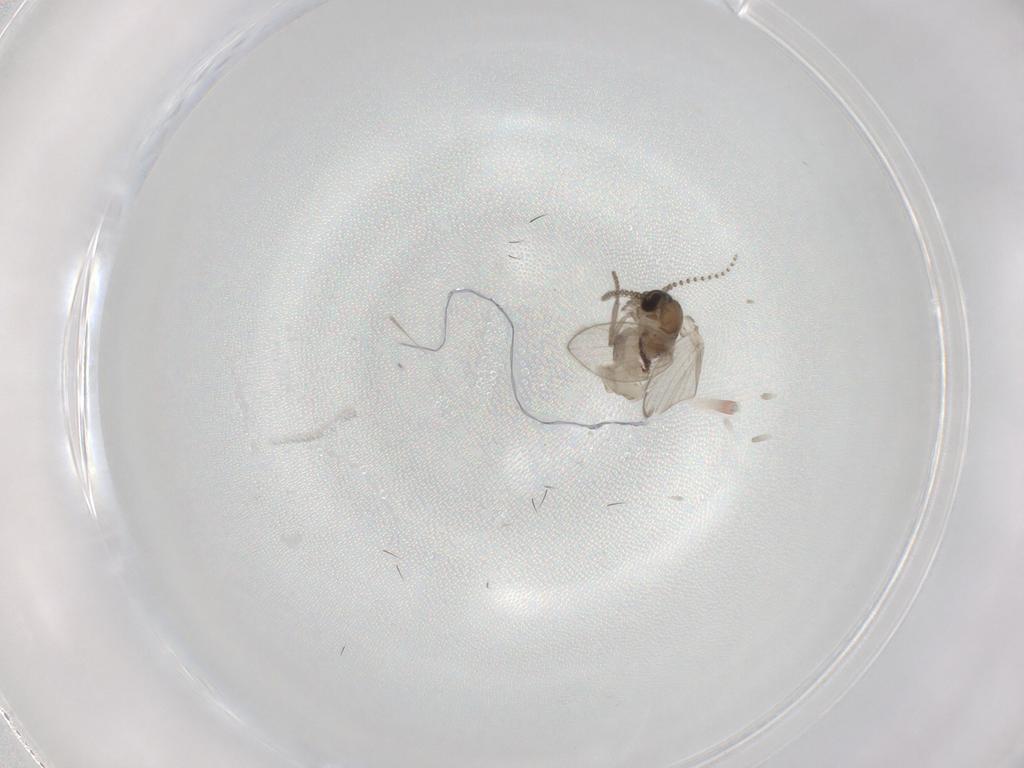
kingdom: Animalia
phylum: Arthropoda
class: Insecta
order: Diptera
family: Psychodidae
